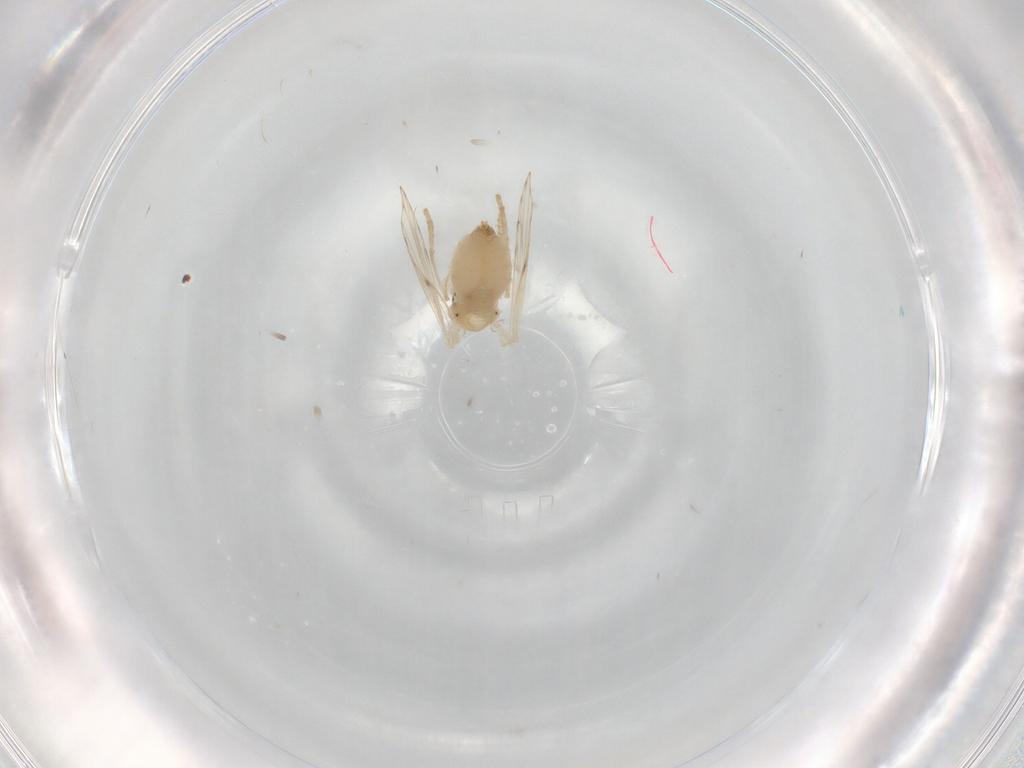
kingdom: Animalia
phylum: Arthropoda
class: Insecta
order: Diptera
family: Psychodidae
